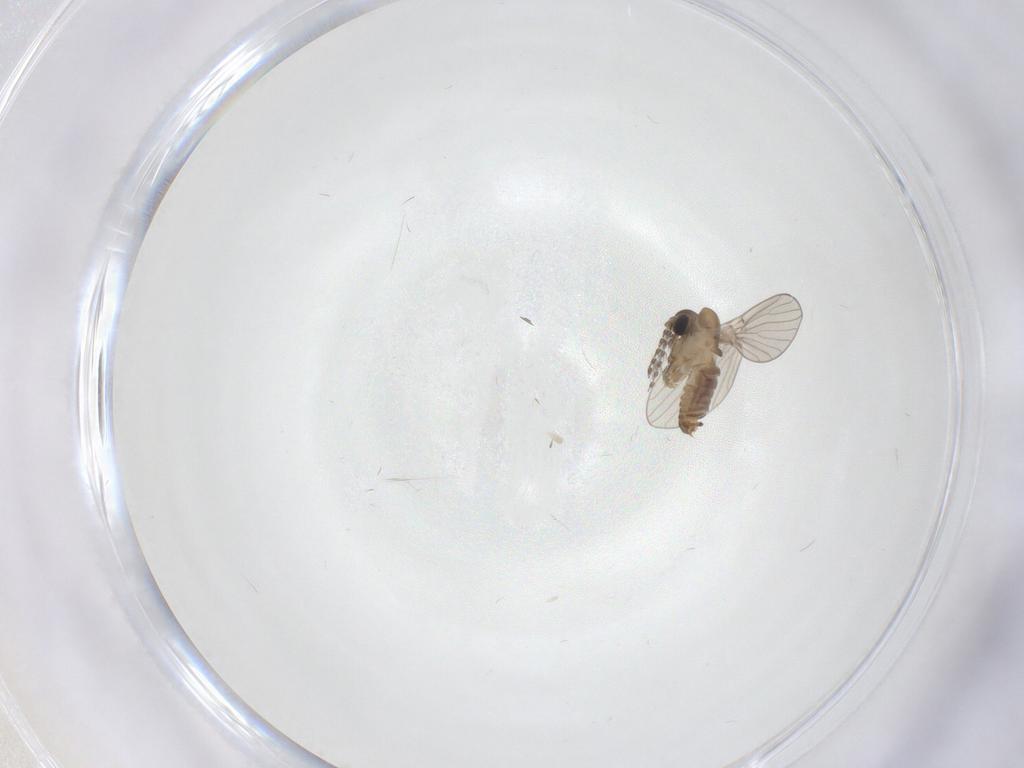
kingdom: Animalia
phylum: Arthropoda
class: Insecta
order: Diptera
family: Psychodidae
